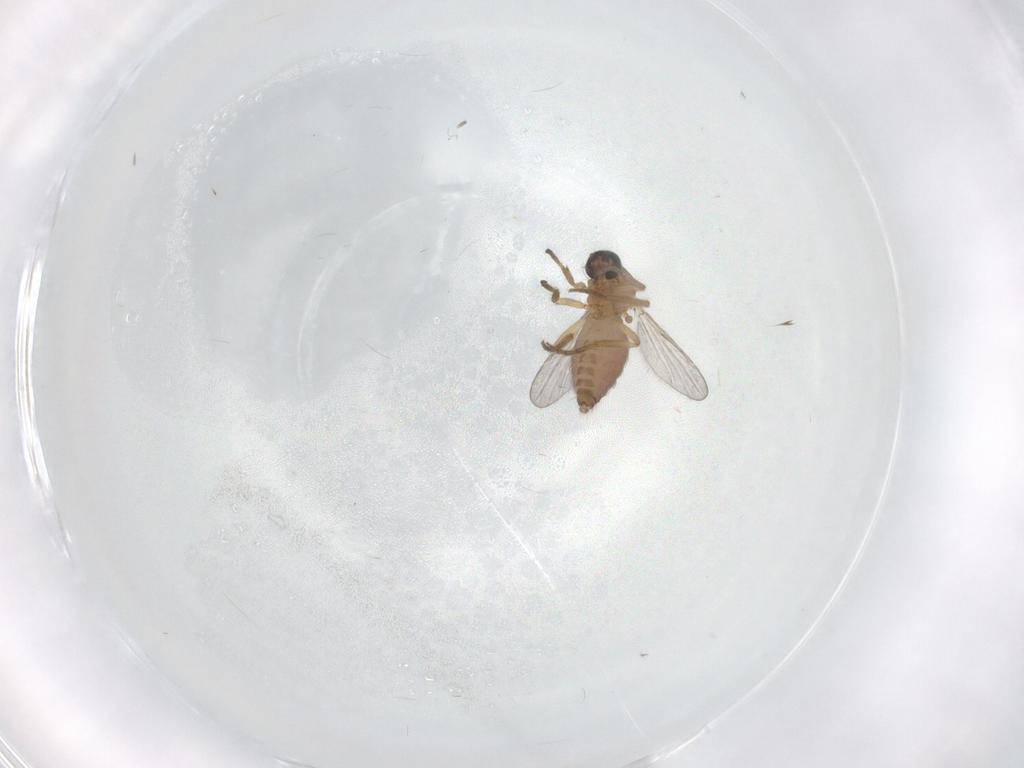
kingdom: Animalia
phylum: Arthropoda
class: Insecta
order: Diptera
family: Ceratopogonidae
